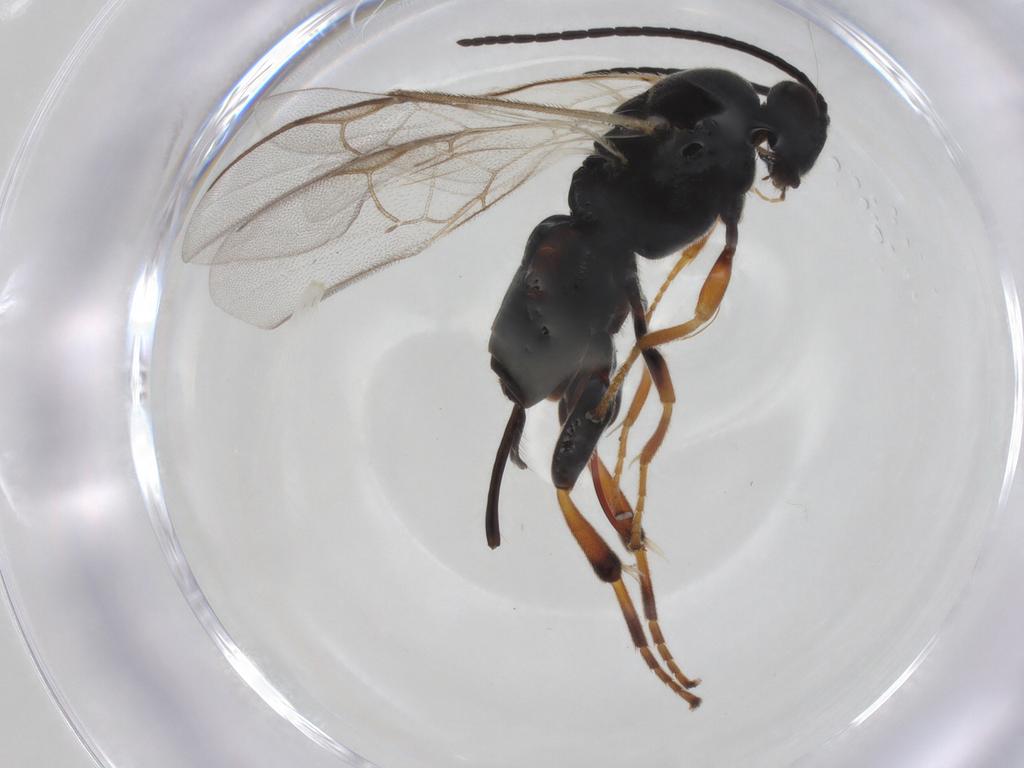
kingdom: Animalia
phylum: Arthropoda
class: Insecta
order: Hymenoptera
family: Braconidae
